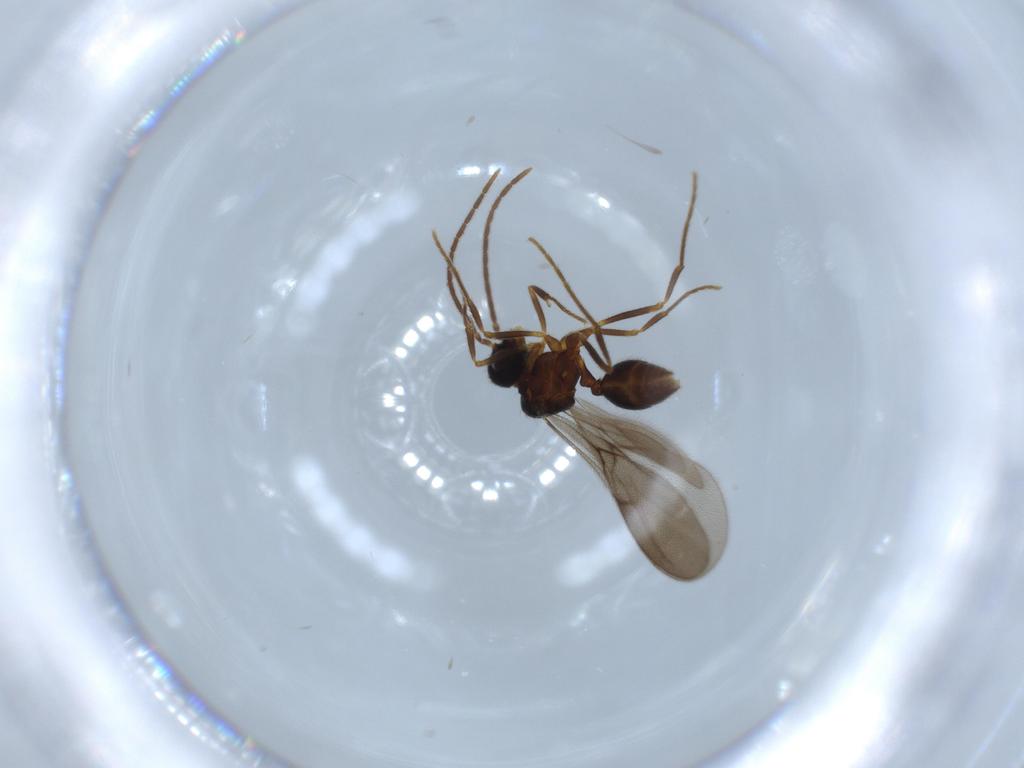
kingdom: Animalia
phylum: Arthropoda
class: Insecta
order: Hymenoptera
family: Formicidae
